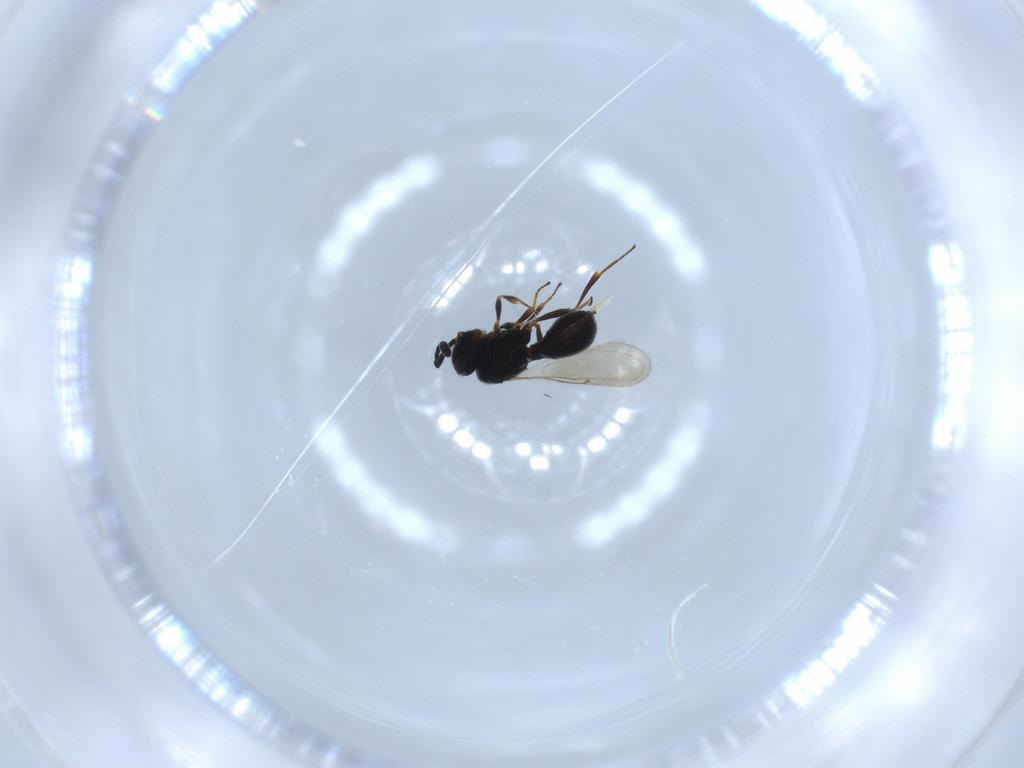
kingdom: Animalia
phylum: Arthropoda
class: Insecta
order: Hymenoptera
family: Scelionidae
